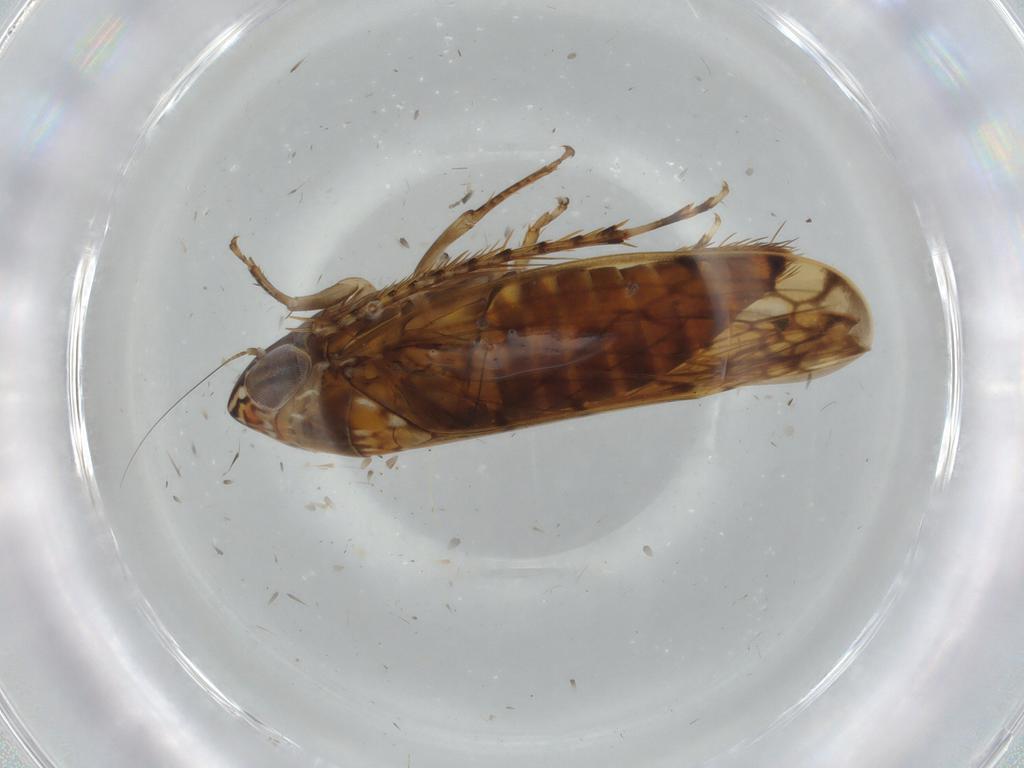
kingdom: Animalia
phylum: Arthropoda
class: Insecta
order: Hemiptera
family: Cicadellidae
